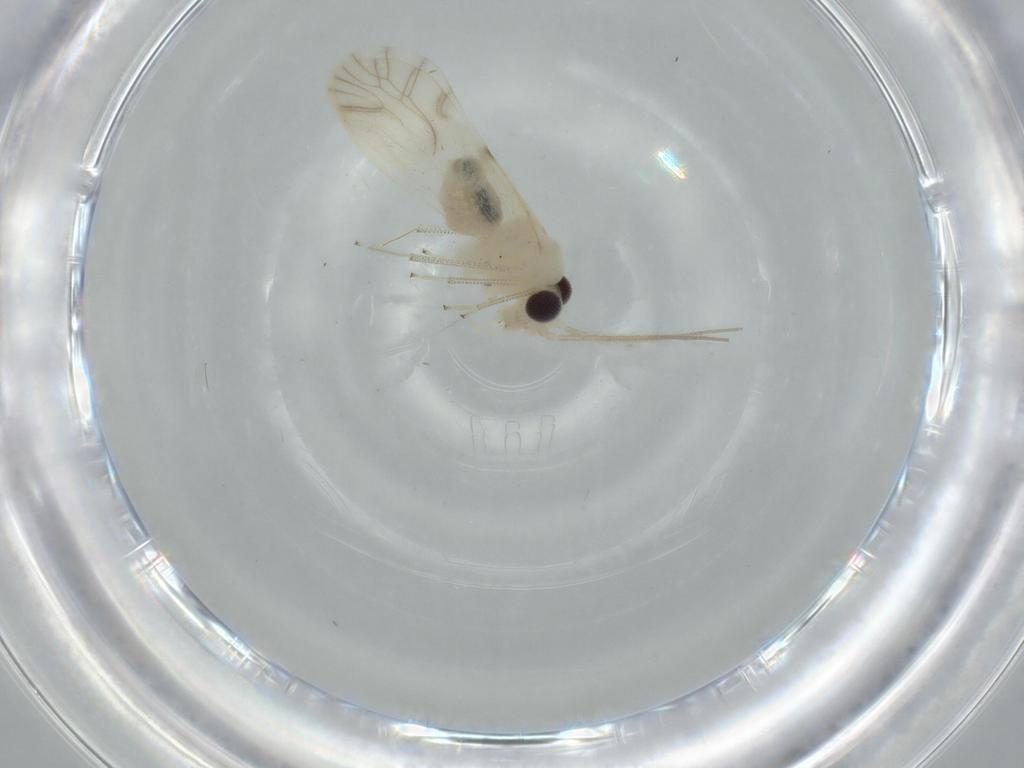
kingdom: Animalia
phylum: Arthropoda
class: Insecta
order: Psocodea
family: Caeciliusidae
